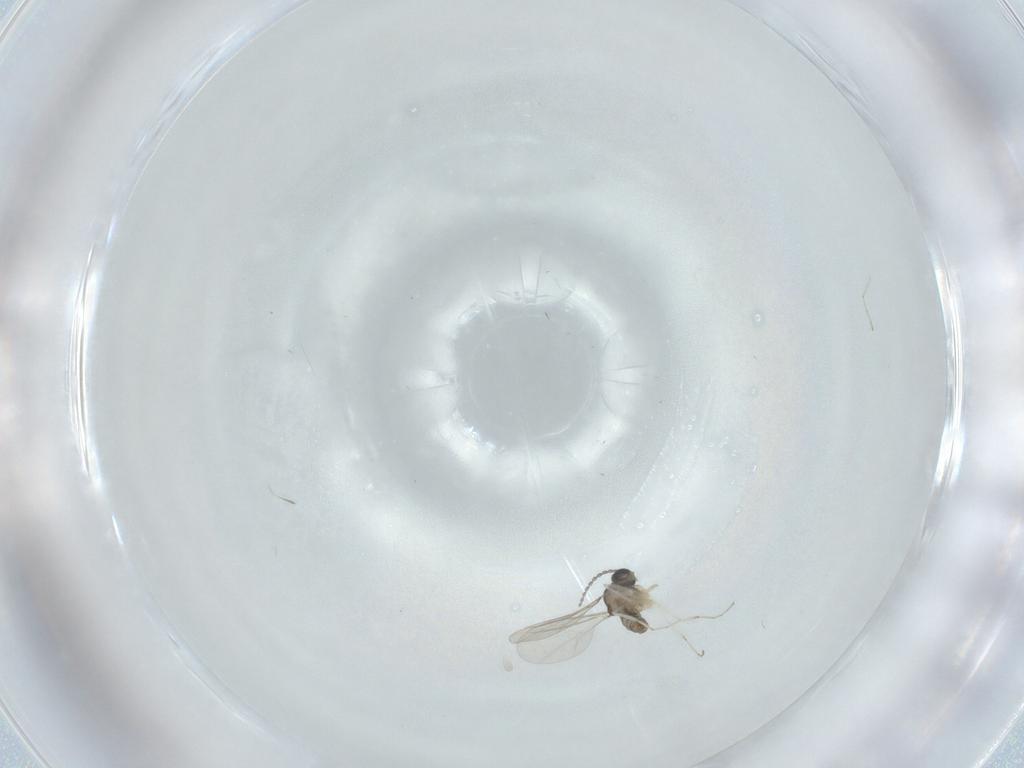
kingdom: Animalia
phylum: Arthropoda
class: Insecta
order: Diptera
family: Cecidomyiidae
